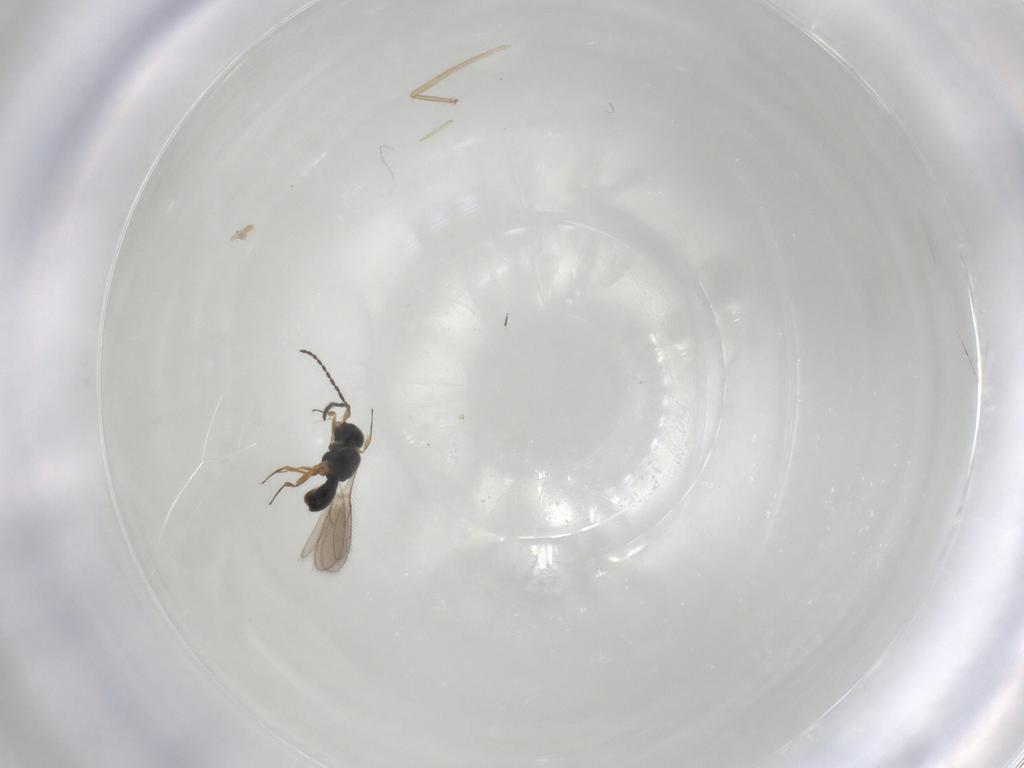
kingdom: Animalia
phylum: Arthropoda
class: Insecta
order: Hymenoptera
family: Scelionidae
